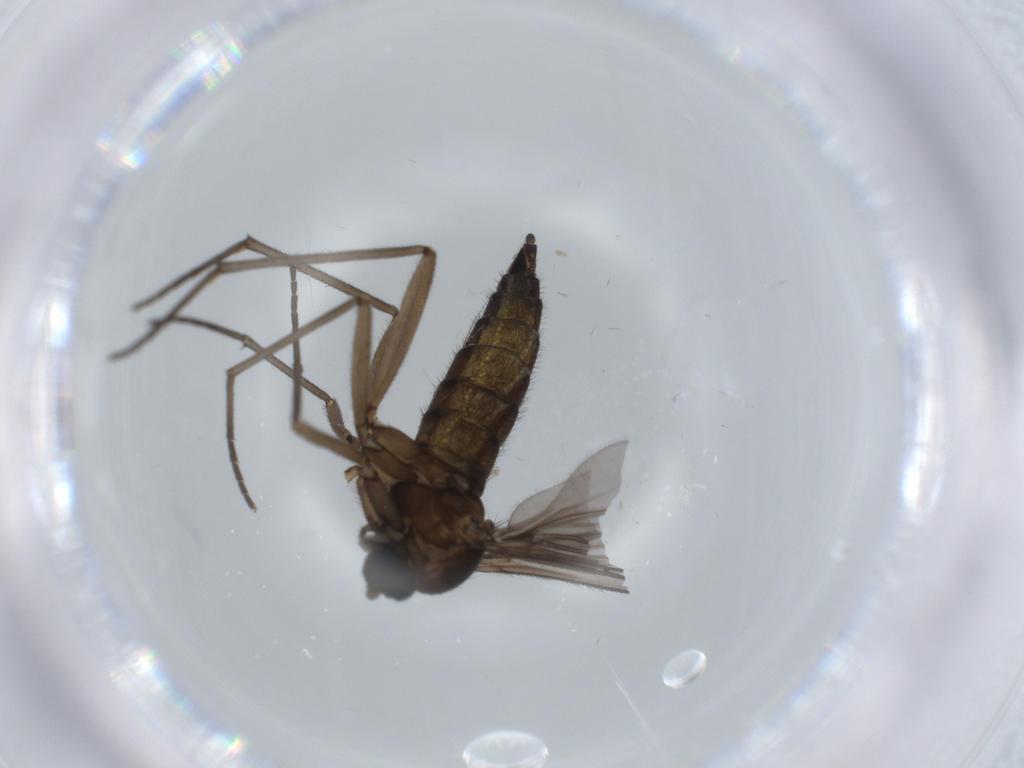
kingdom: Animalia
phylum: Arthropoda
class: Insecta
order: Diptera
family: Sciaridae
